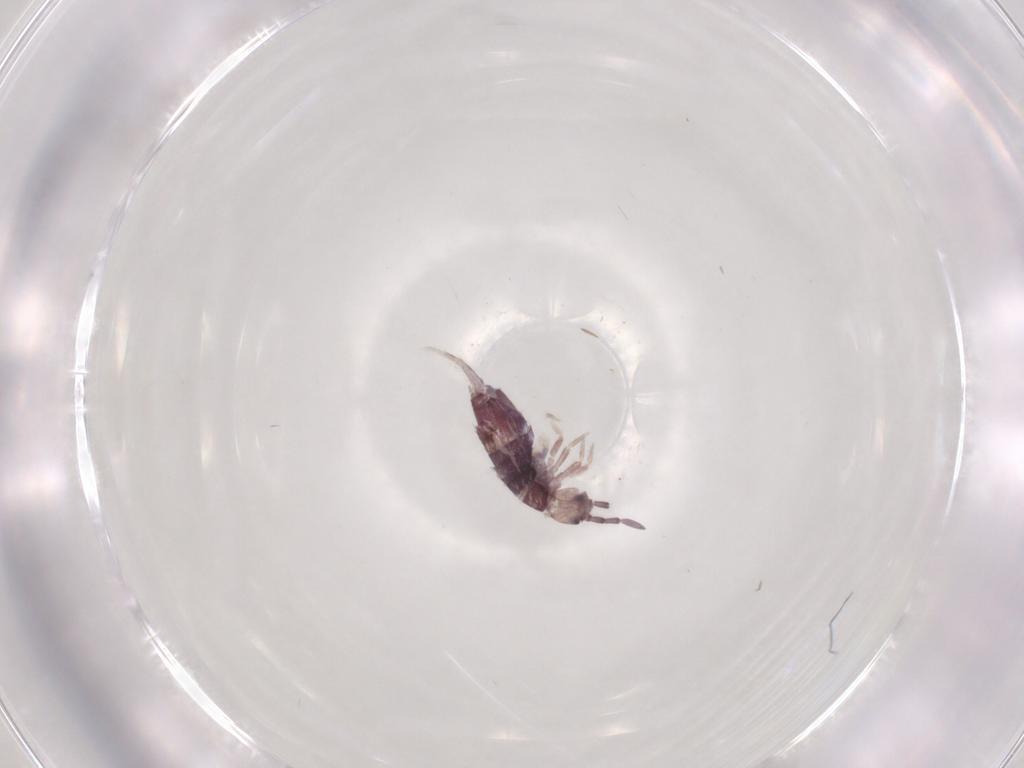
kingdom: Animalia
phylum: Arthropoda
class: Collembola
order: Entomobryomorpha
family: Entomobryidae
